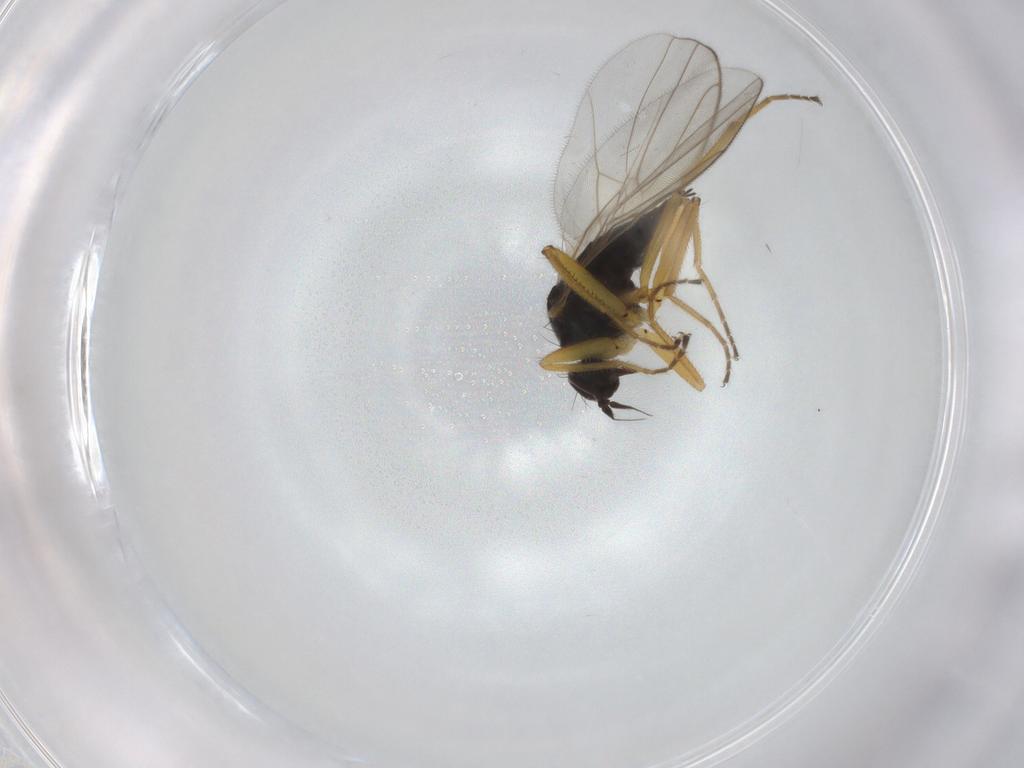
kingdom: Animalia
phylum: Arthropoda
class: Insecta
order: Diptera
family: Hybotidae
